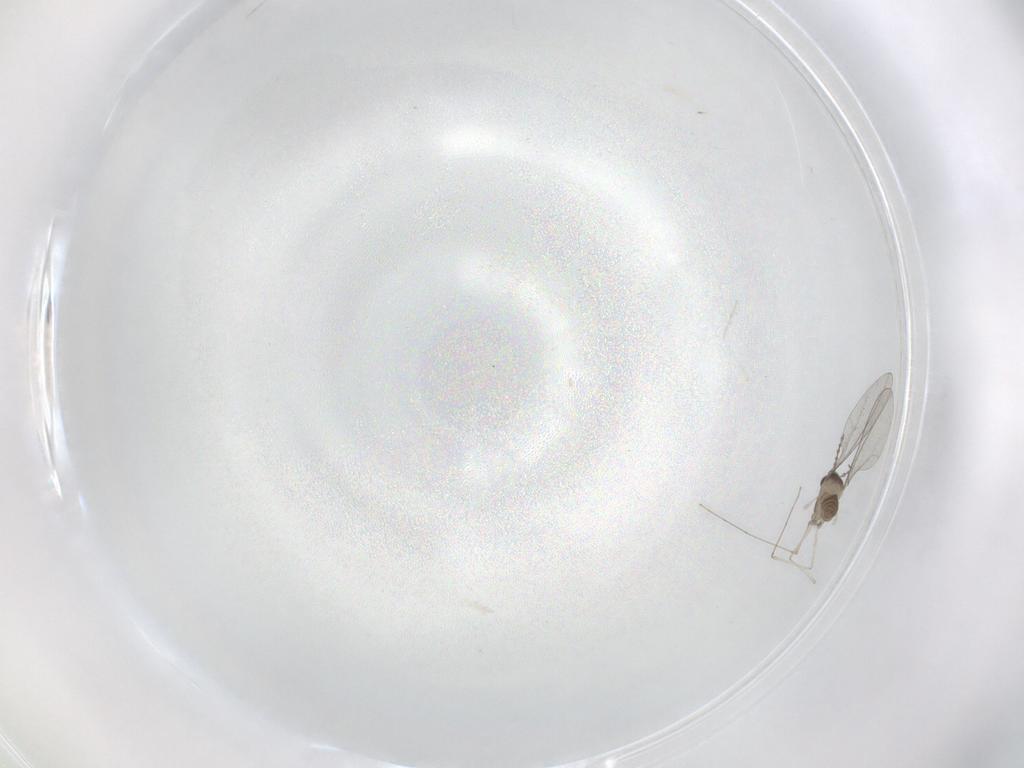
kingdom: Animalia
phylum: Arthropoda
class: Insecta
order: Diptera
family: Cecidomyiidae
